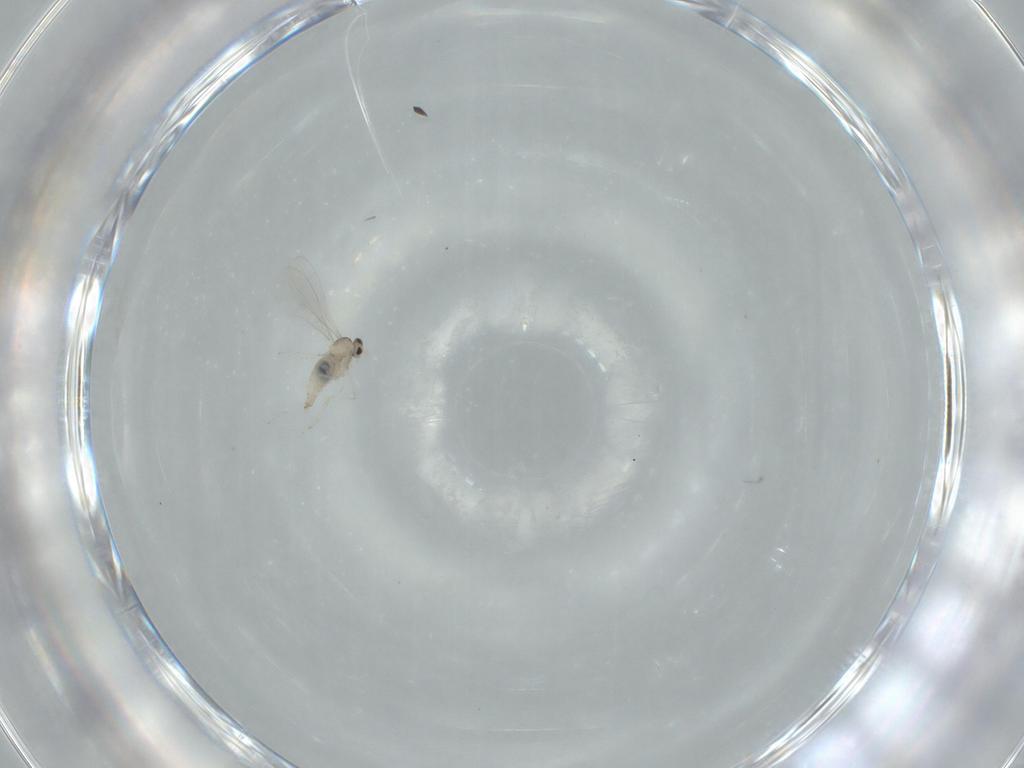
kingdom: Animalia
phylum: Arthropoda
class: Insecta
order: Diptera
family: Cecidomyiidae
